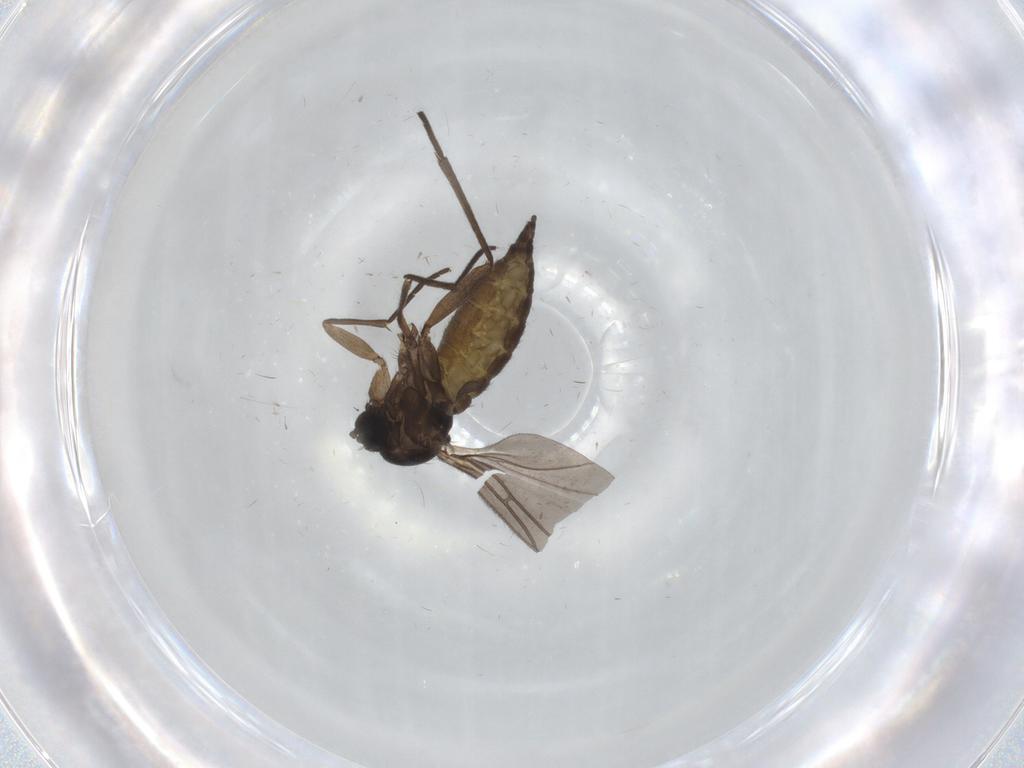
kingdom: Animalia
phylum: Arthropoda
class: Insecta
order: Diptera
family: Sciaridae
